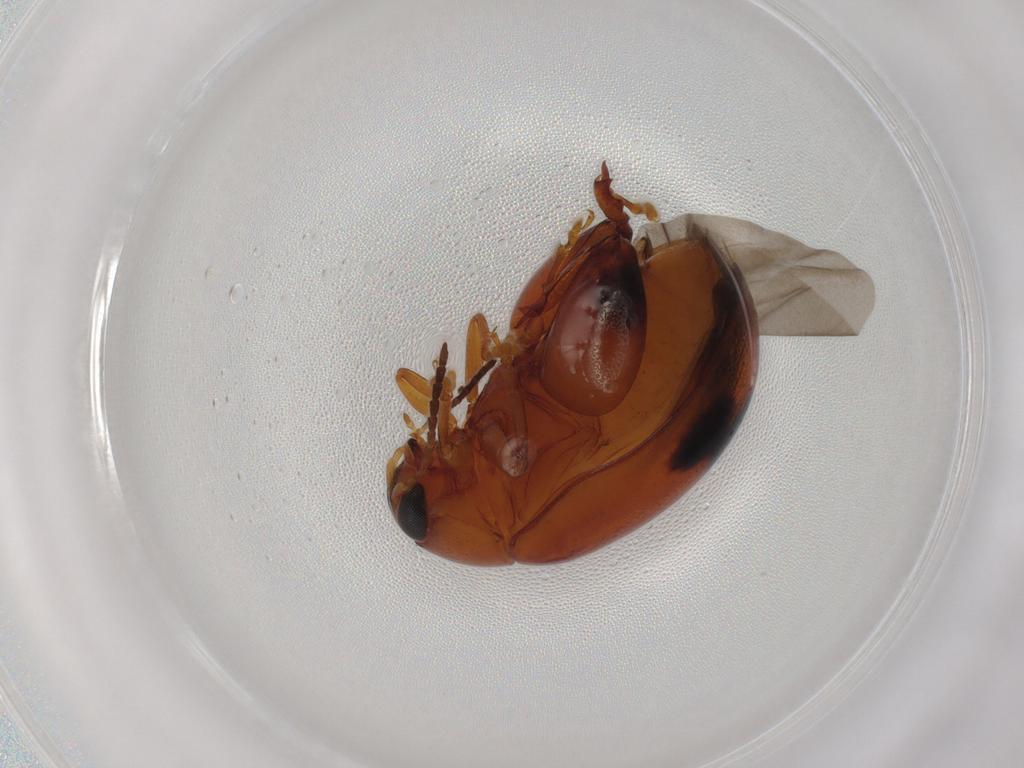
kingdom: Animalia
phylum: Arthropoda
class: Insecta
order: Coleoptera
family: Chrysomelidae
